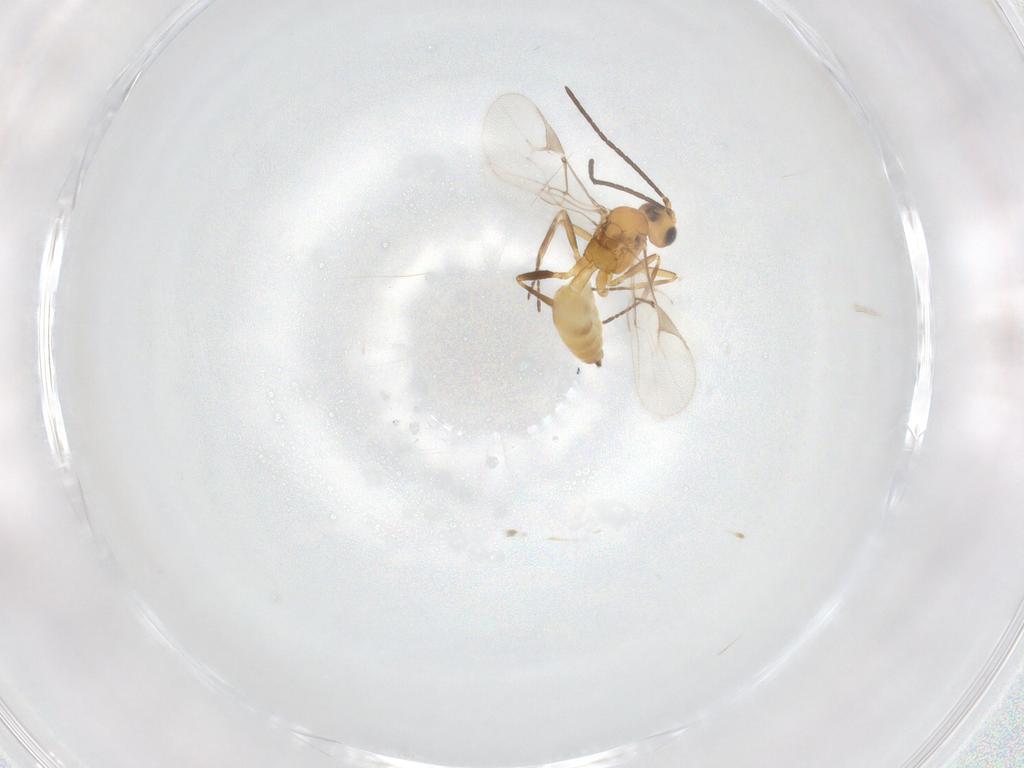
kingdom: Animalia
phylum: Arthropoda
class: Insecta
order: Hymenoptera
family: Braconidae
